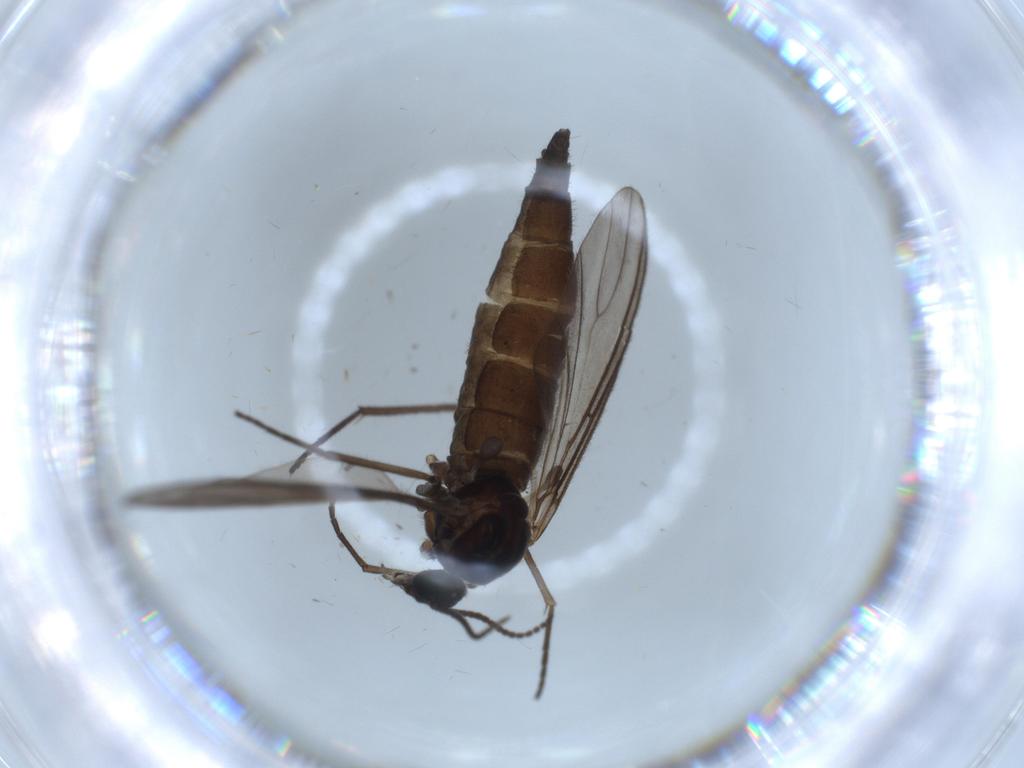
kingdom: Animalia
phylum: Arthropoda
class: Insecta
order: Diptera
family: Sciaridae
